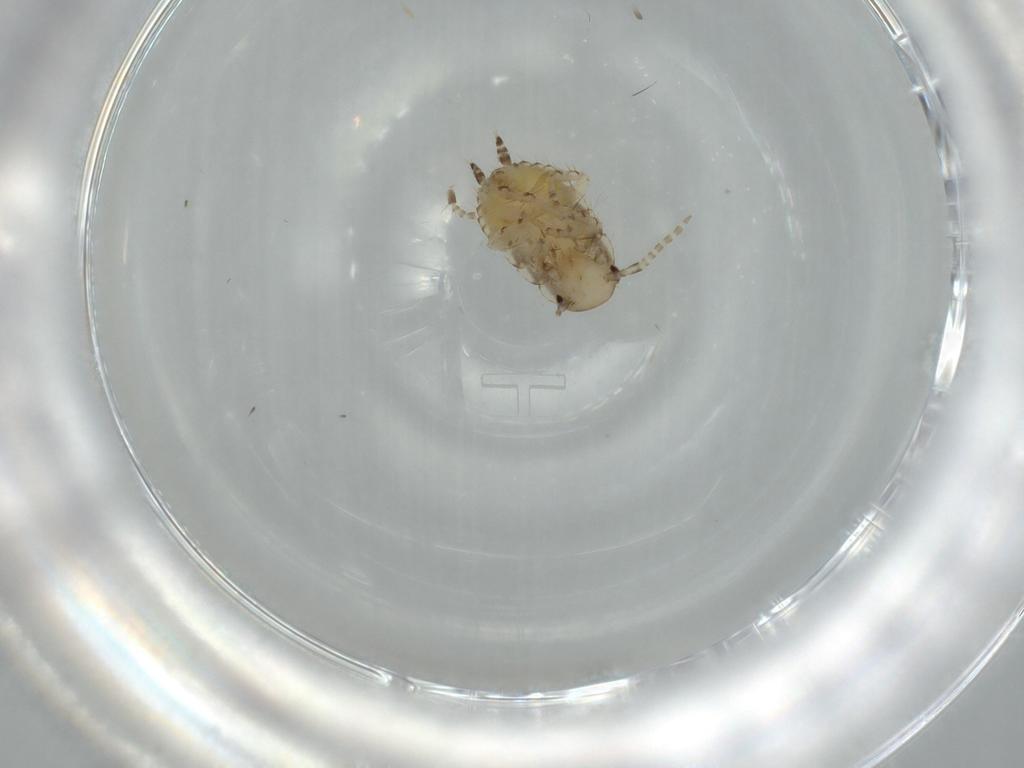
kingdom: Animalia
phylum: Arthropoda
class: Insecta
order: Blattodea
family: Ectobiidae
